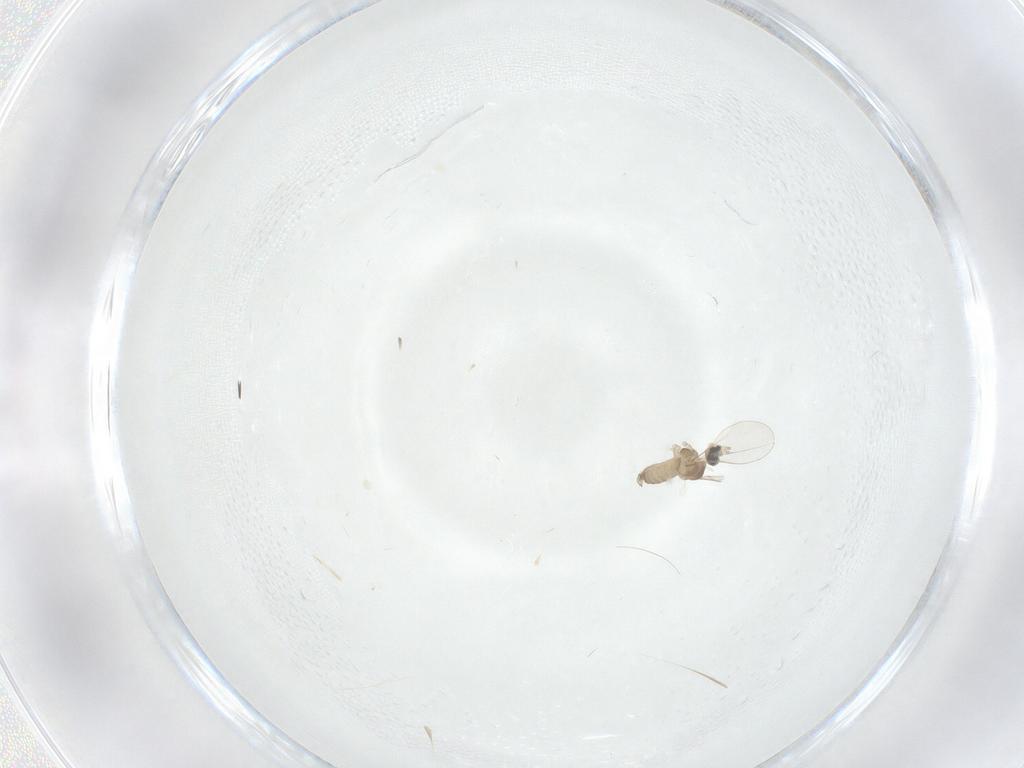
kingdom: Animalia
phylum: Arthropoda
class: Insecta
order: Diptera
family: Cecidomyiidae
